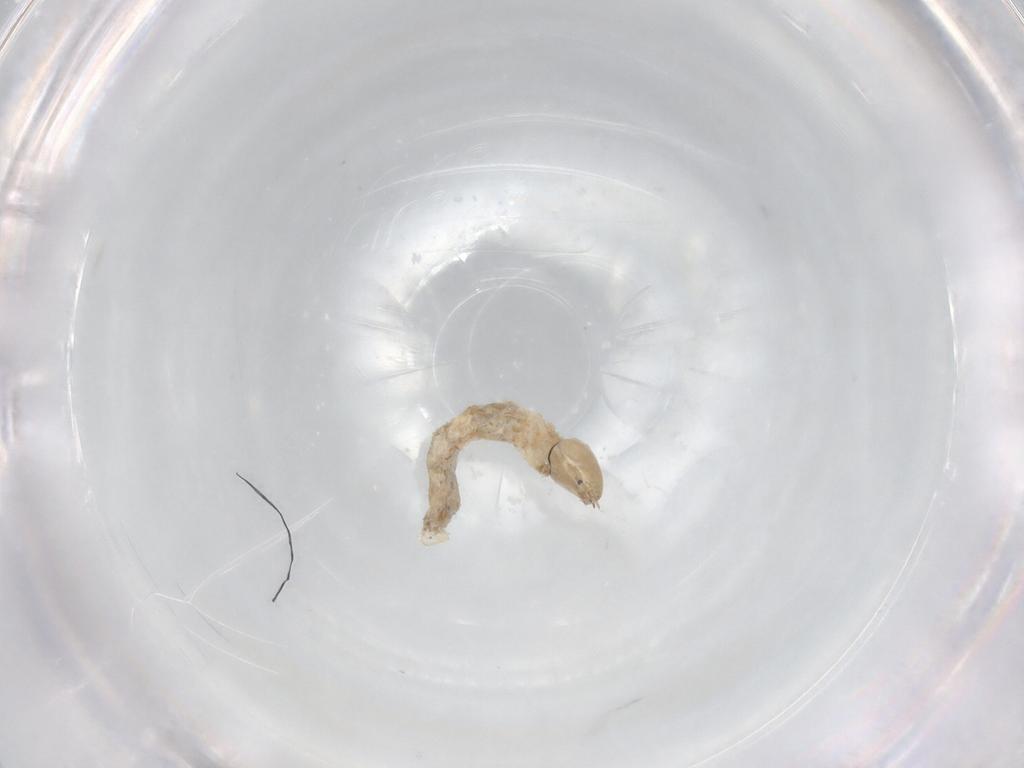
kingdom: Animalia
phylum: Arthropoda
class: Insecta
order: Diptera
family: Chironomidae
